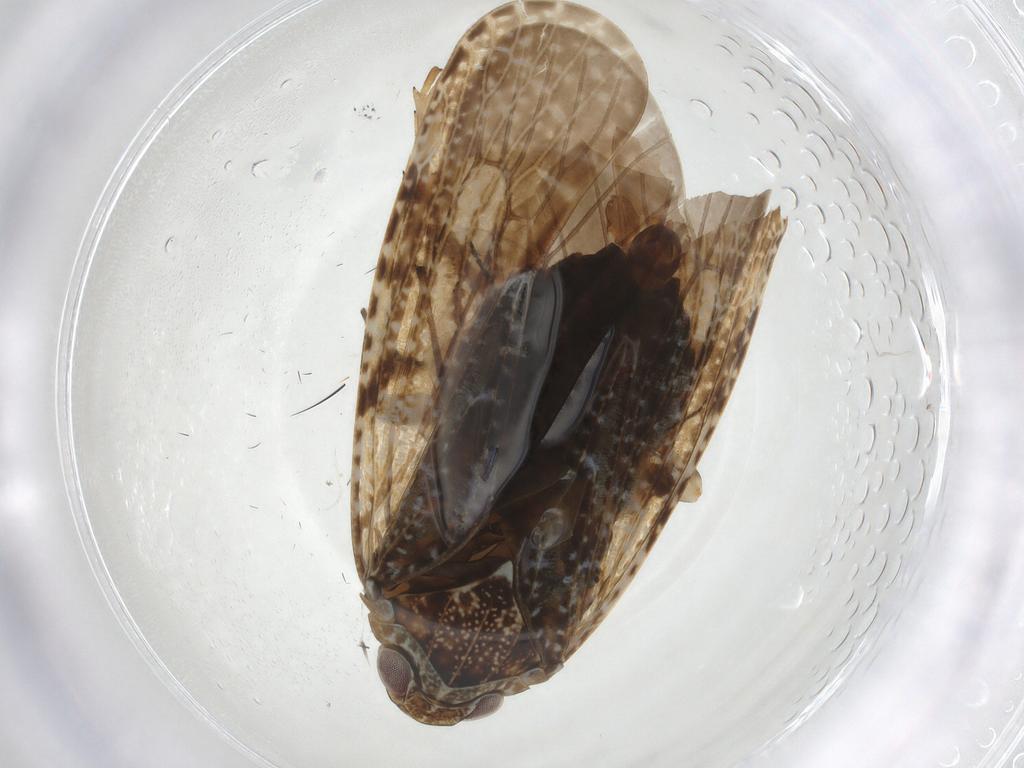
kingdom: Animalia
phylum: Arthropoda
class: Insecta
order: Hemiptera
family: Achilidae
